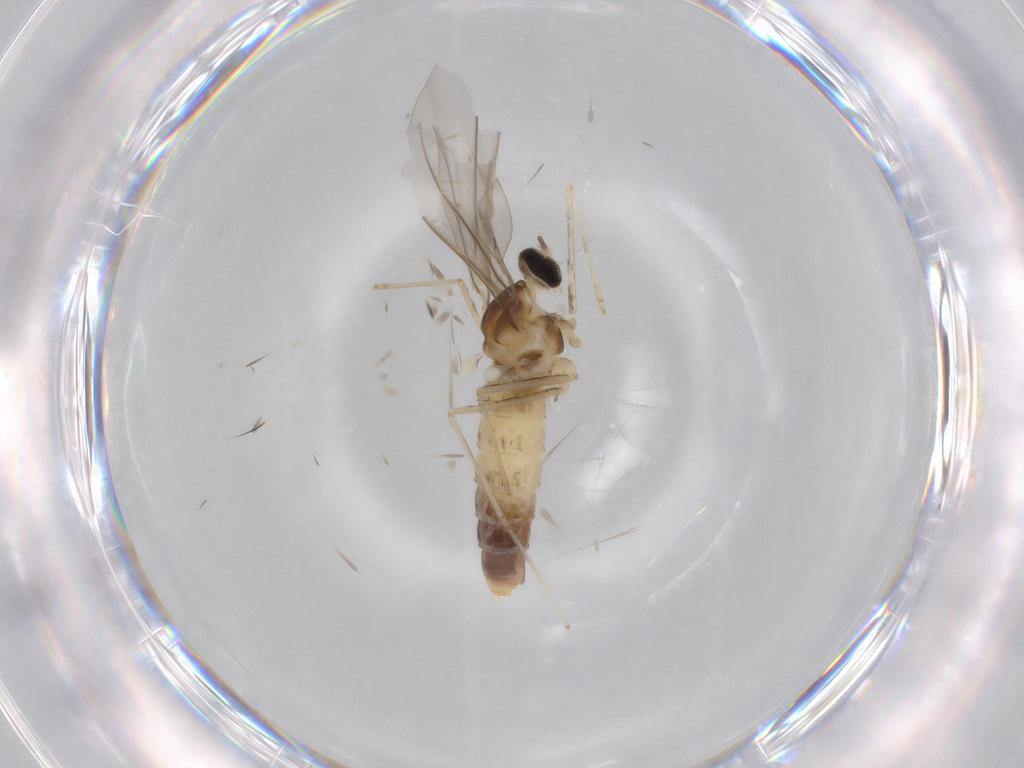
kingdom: Animalia
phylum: Arthropoda
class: Insecta
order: Diptera
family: Cecidomyiidae
